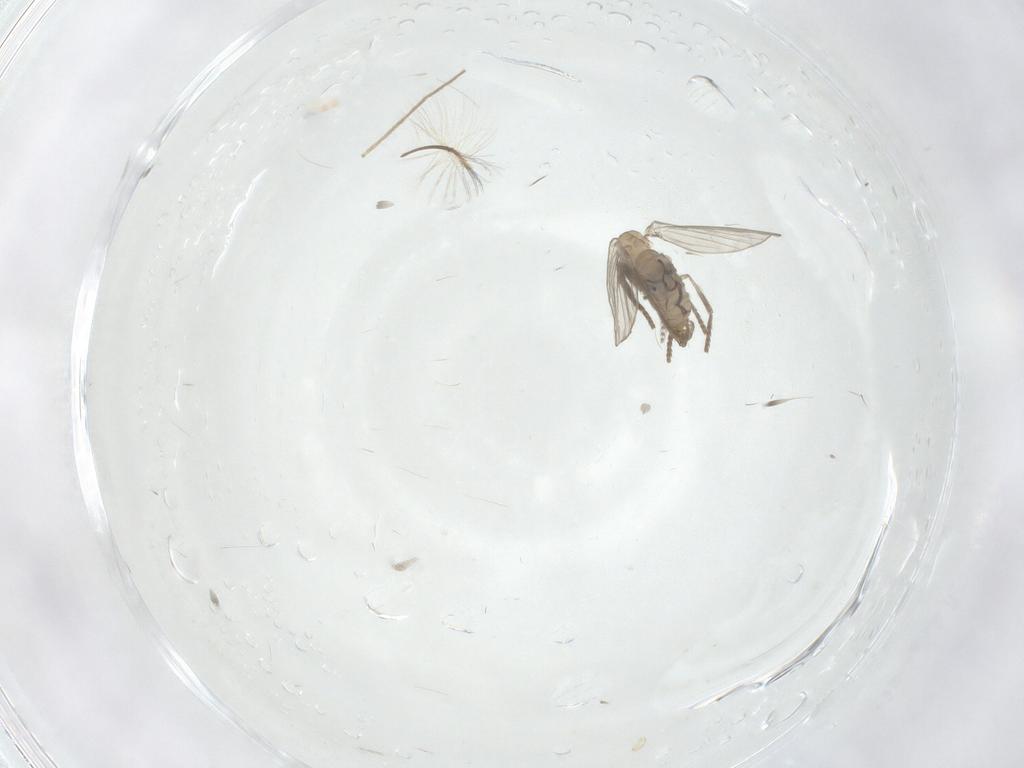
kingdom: Animalia
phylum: Arthropoda
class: Insecta
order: Diptera
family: Psychodidae
